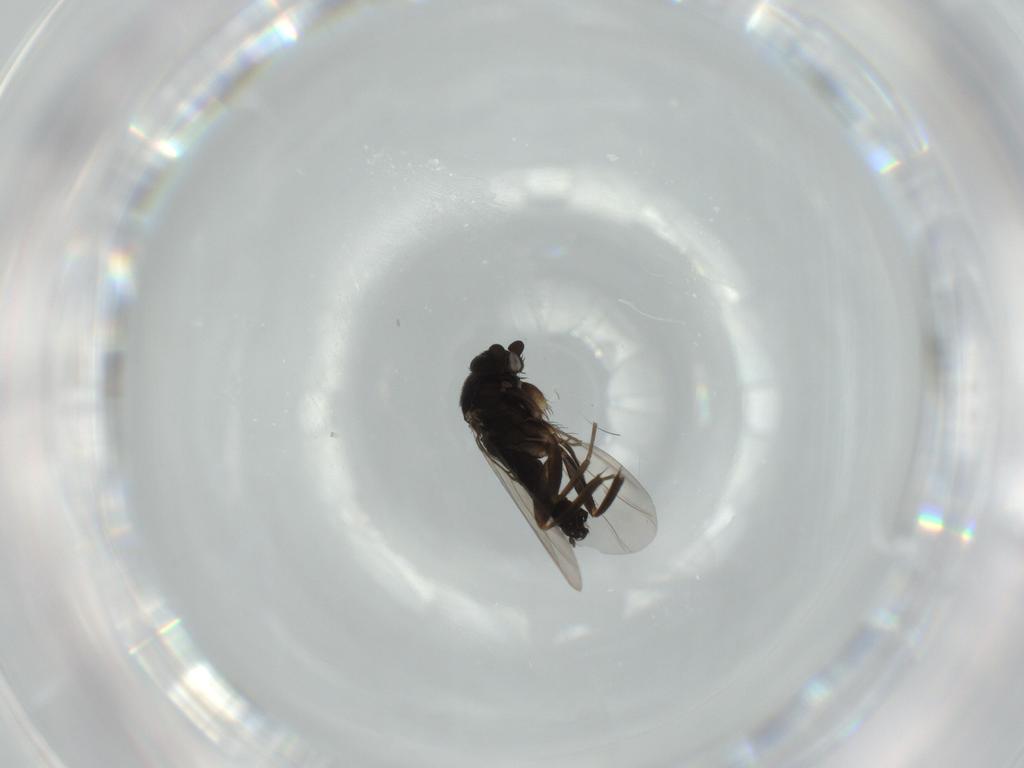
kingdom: Animalia
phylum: Arthropoda
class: Insecta
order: Diptera
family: Phoridae
